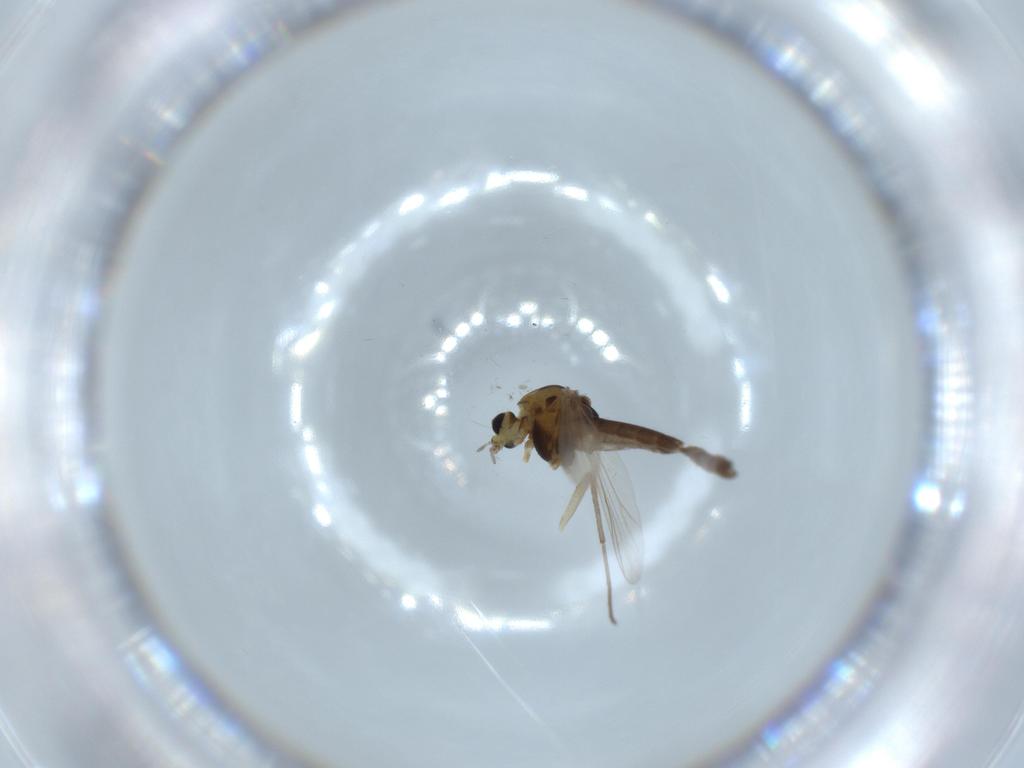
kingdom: Animalia
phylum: Arthropoda
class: Insecta
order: Diptera
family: Chironomidae
